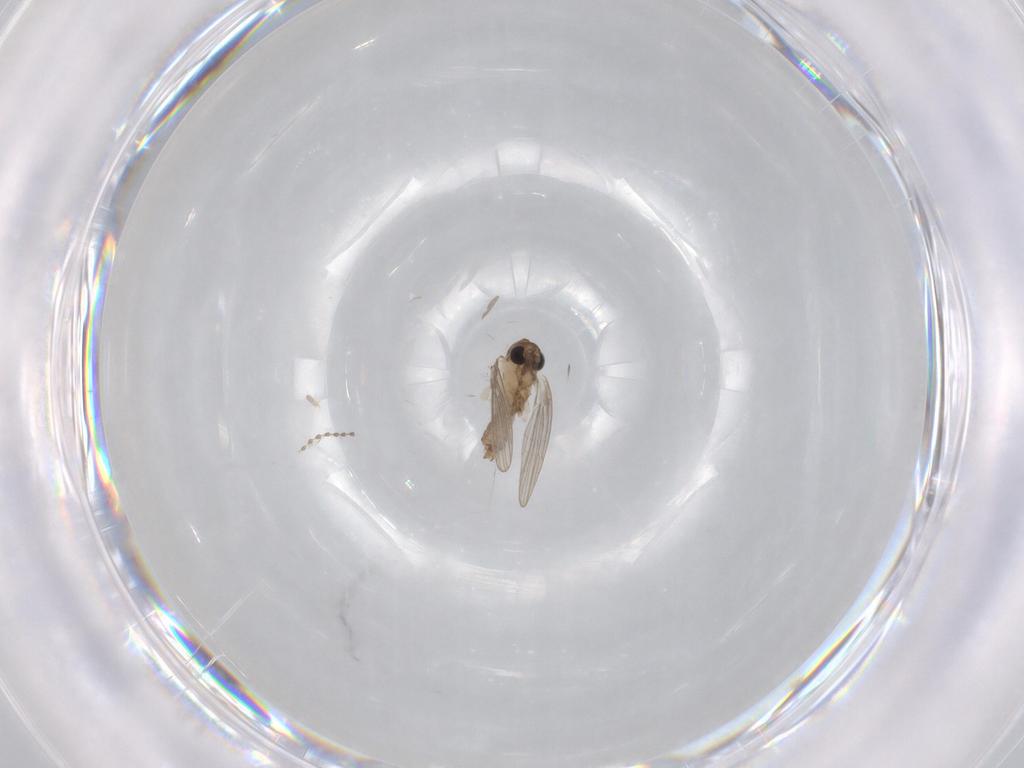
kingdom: Animalia
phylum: Arthropoda
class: Insecta
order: Diptera
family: Psychodidae
